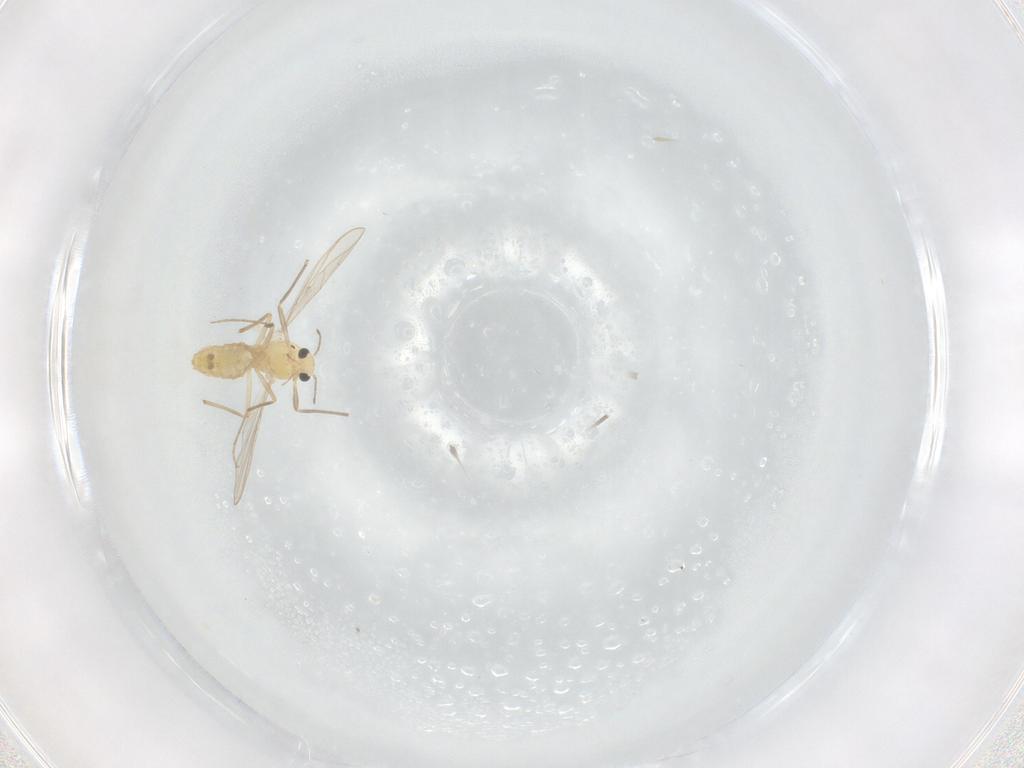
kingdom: Animalia
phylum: Arthropoda
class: Insecta
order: Diptera
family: Chironomidae
